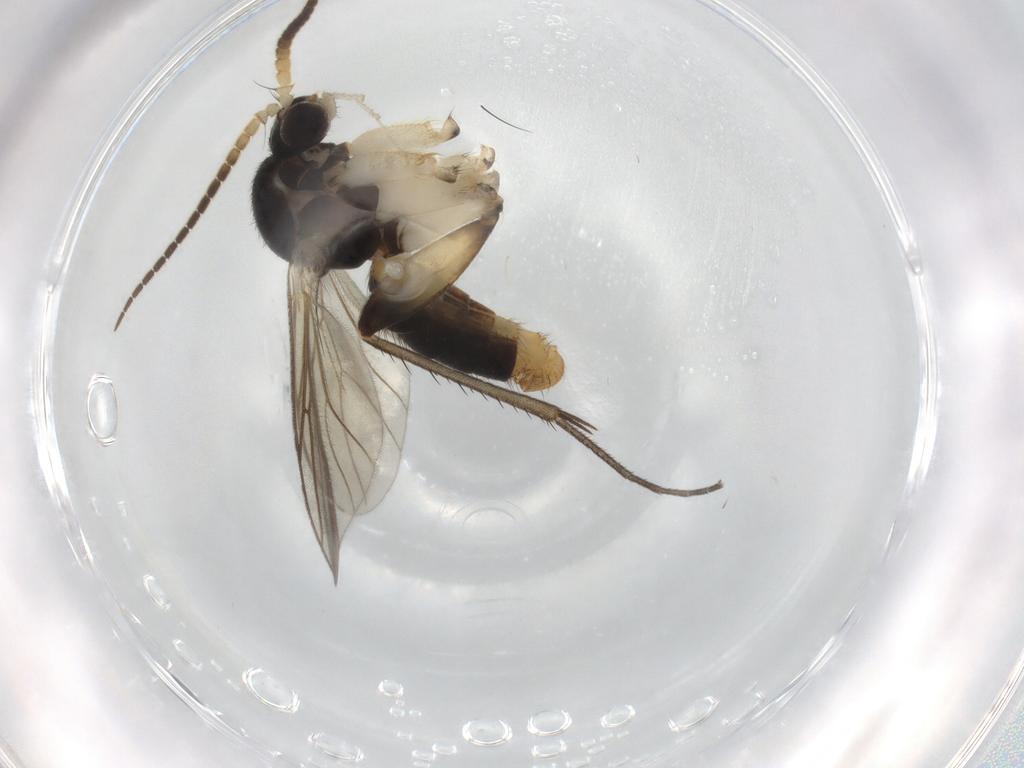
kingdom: Animalia
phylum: Arthropoda
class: Insecta
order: Diptera
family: Mycetophilidae
